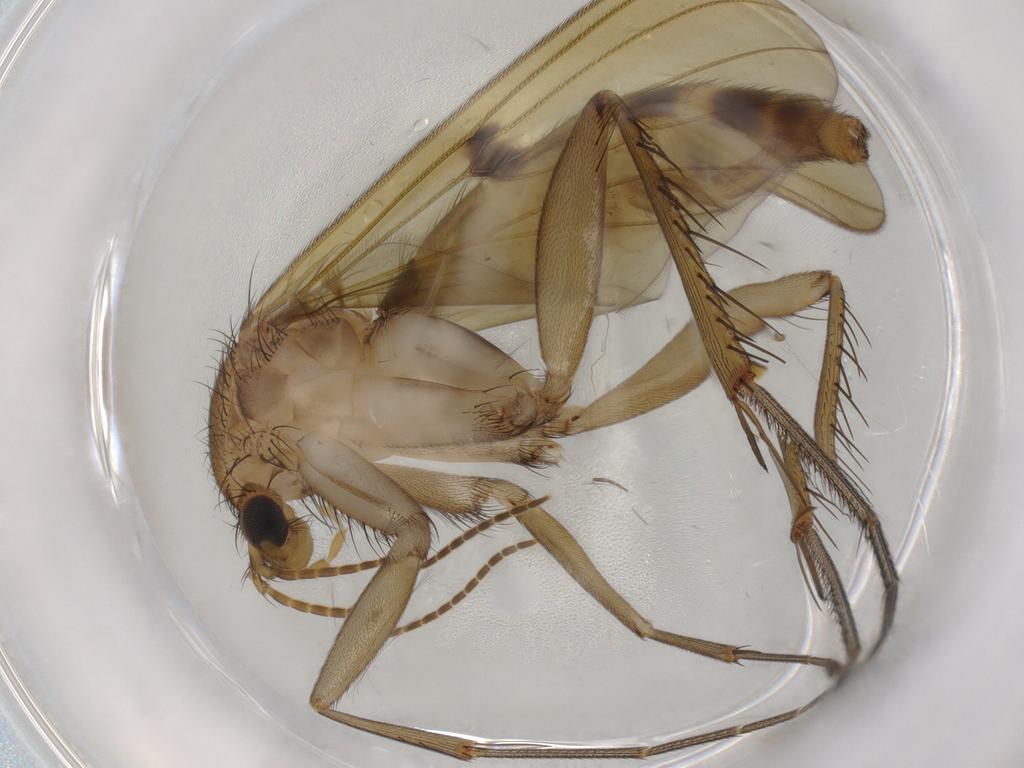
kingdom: Animalia
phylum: Arthropoda
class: Insecta
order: Diptera
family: Mycetophilidae
